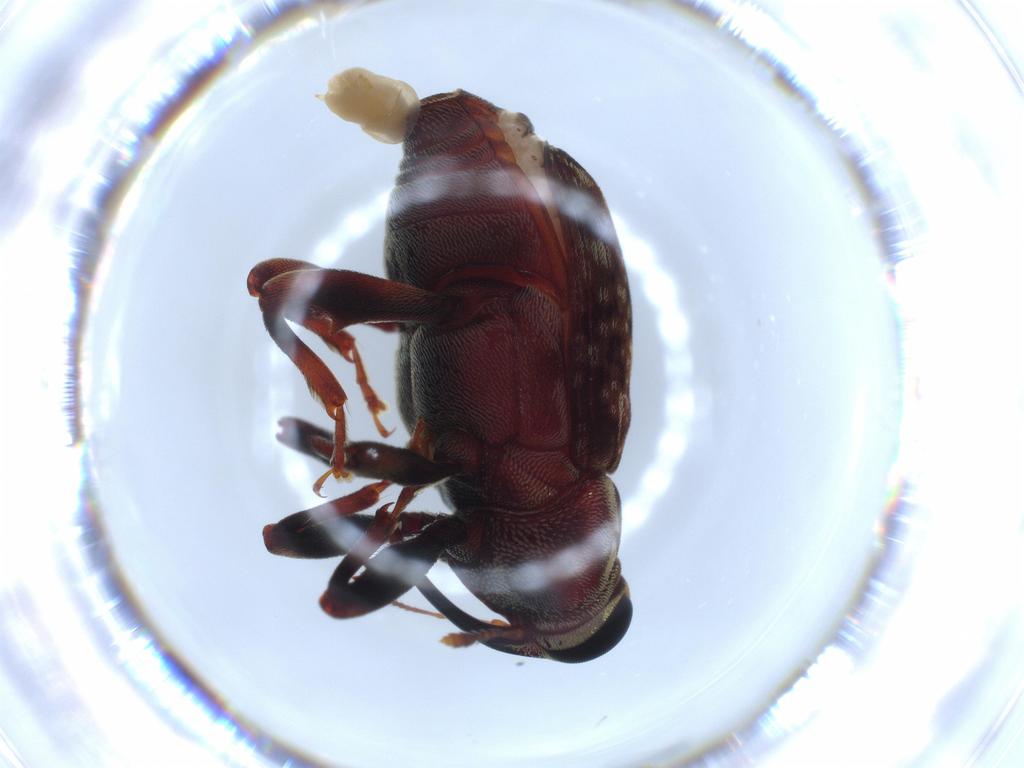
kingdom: Animalia
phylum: Arthropoda
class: Insecta
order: Coleoptera
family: Curculionidae
